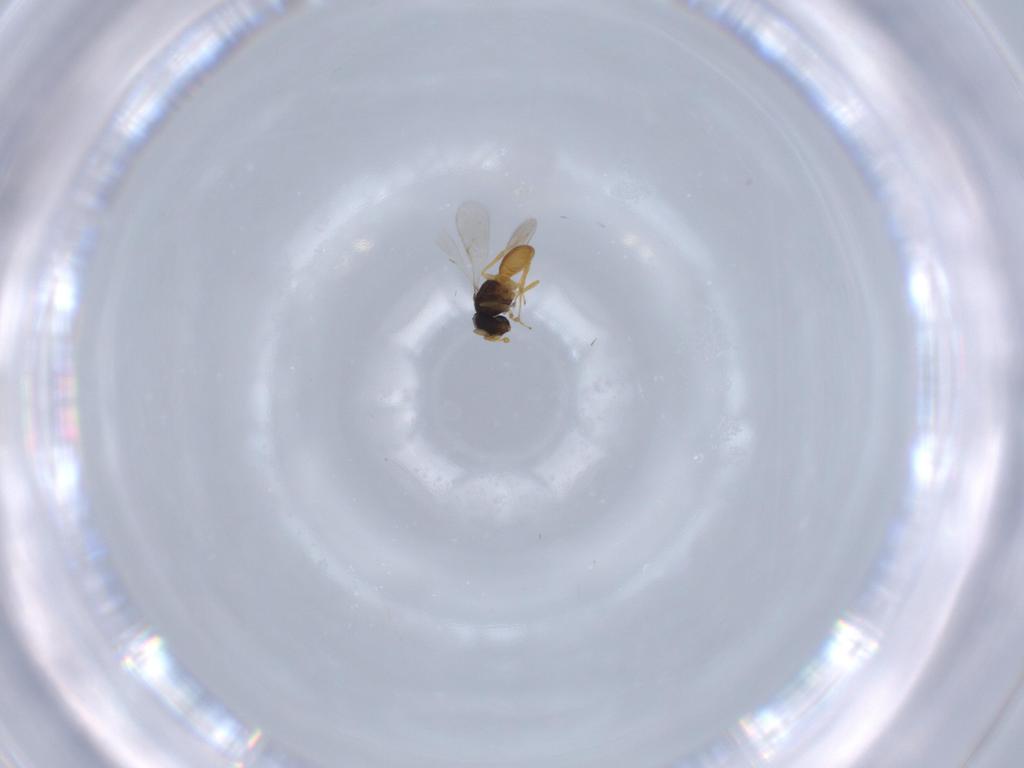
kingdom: Animalia
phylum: Arthropoda
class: Insecta
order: Hymenoptera
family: Scelionidae
